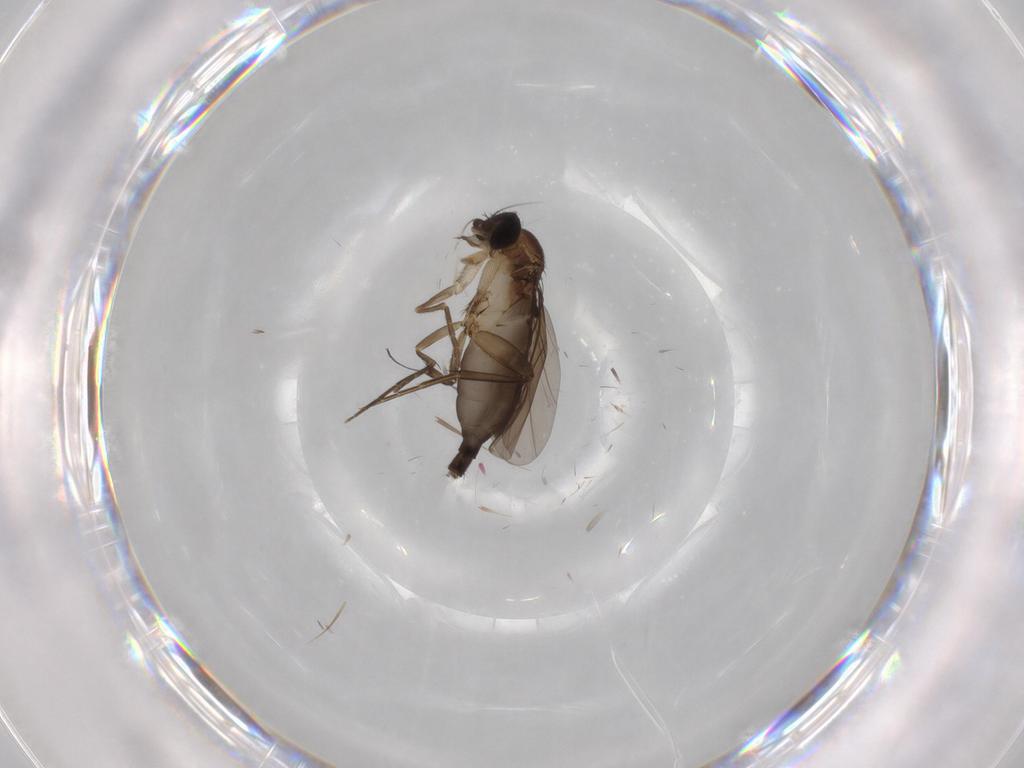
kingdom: Animalia
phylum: Arthropoda
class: Insecta
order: Diptera
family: Phoridae
